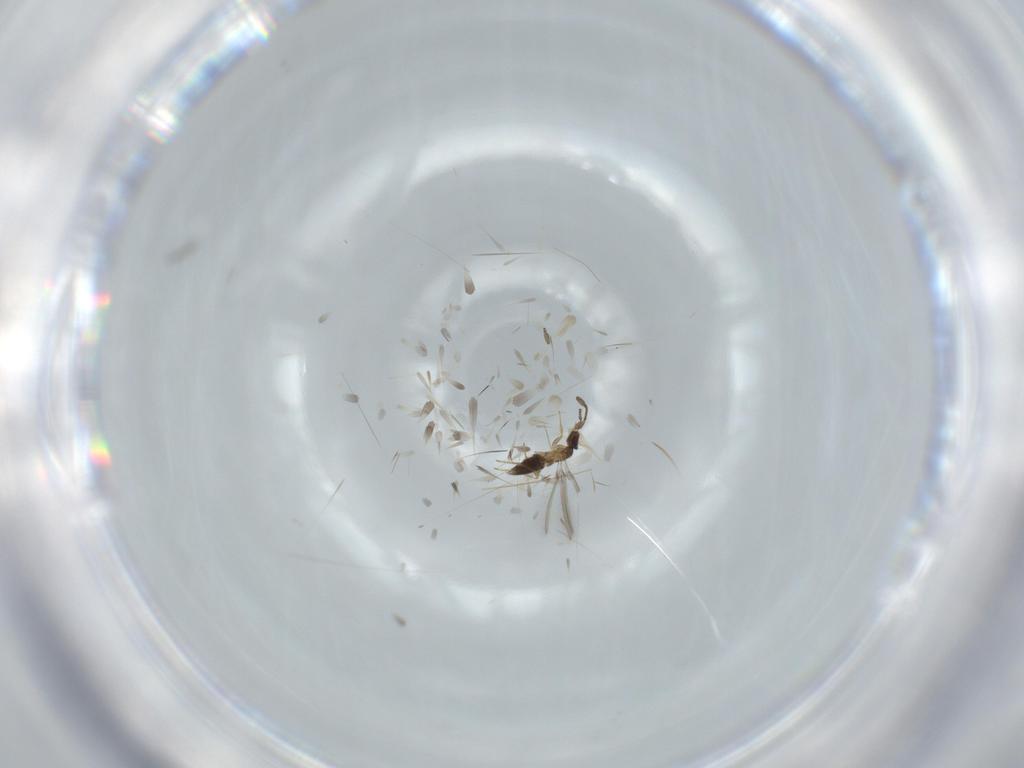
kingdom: Animalia
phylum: Arthropoda
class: Insecta
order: Hymenoptera
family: Mymaridae
